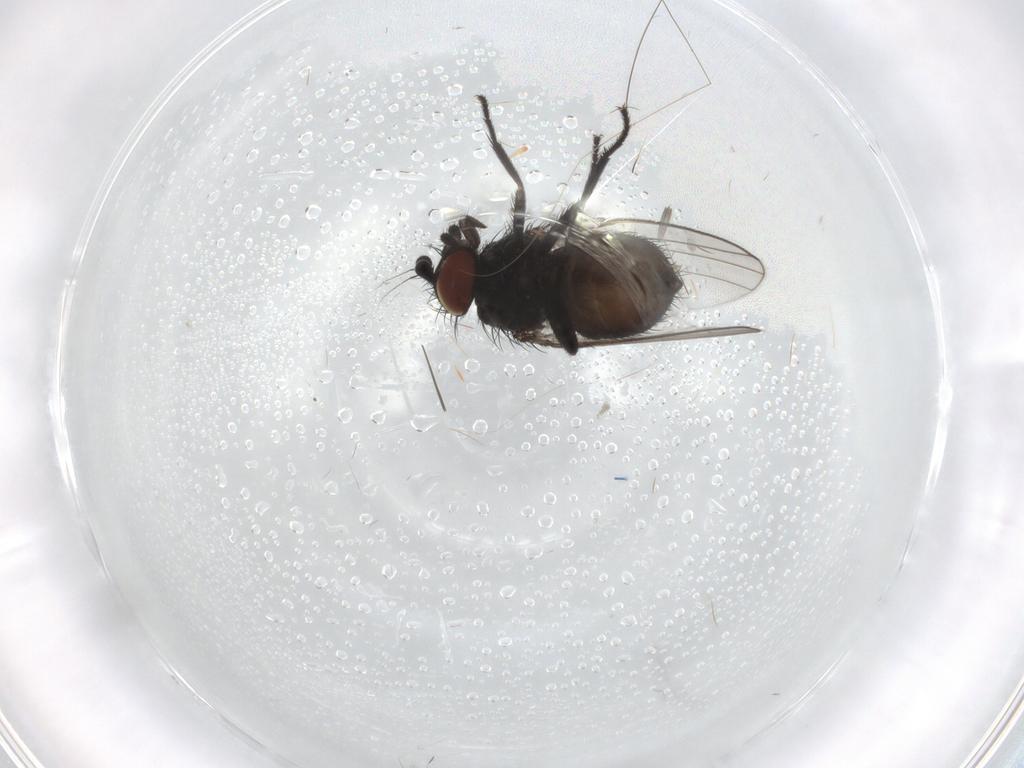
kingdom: Animalia
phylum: Arthropoda
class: Insecta
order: Diptera
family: Milichiidae
